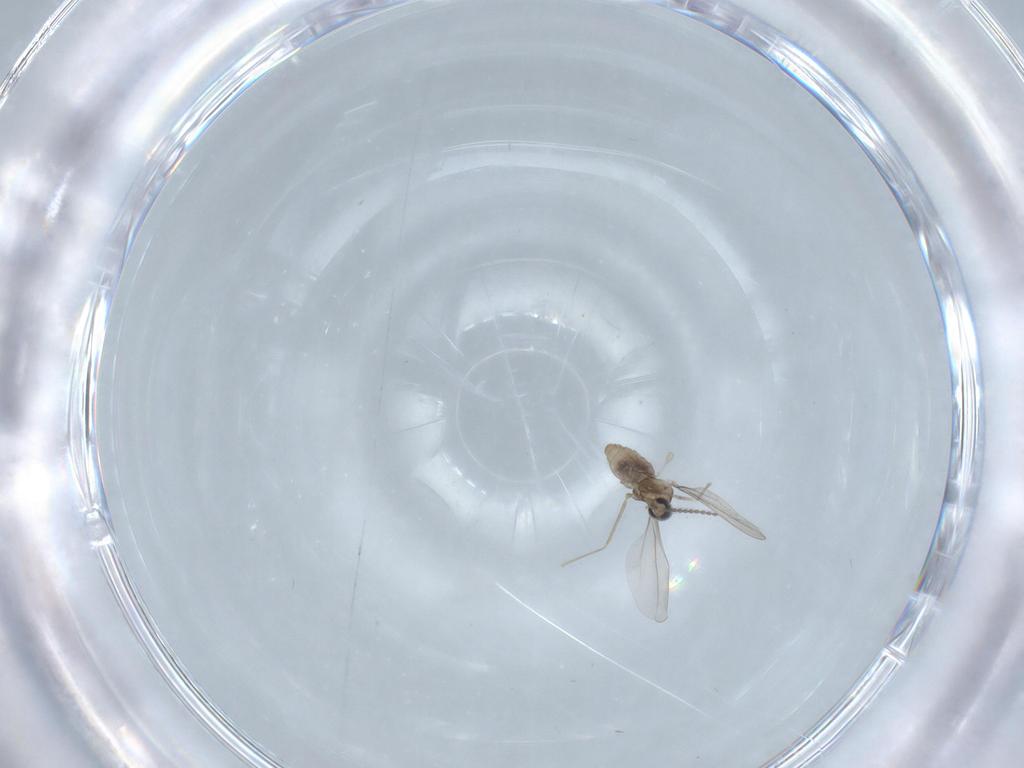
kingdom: Animalia
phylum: Arthropoda
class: Insecta
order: Diptera
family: Cecidomyiidae
